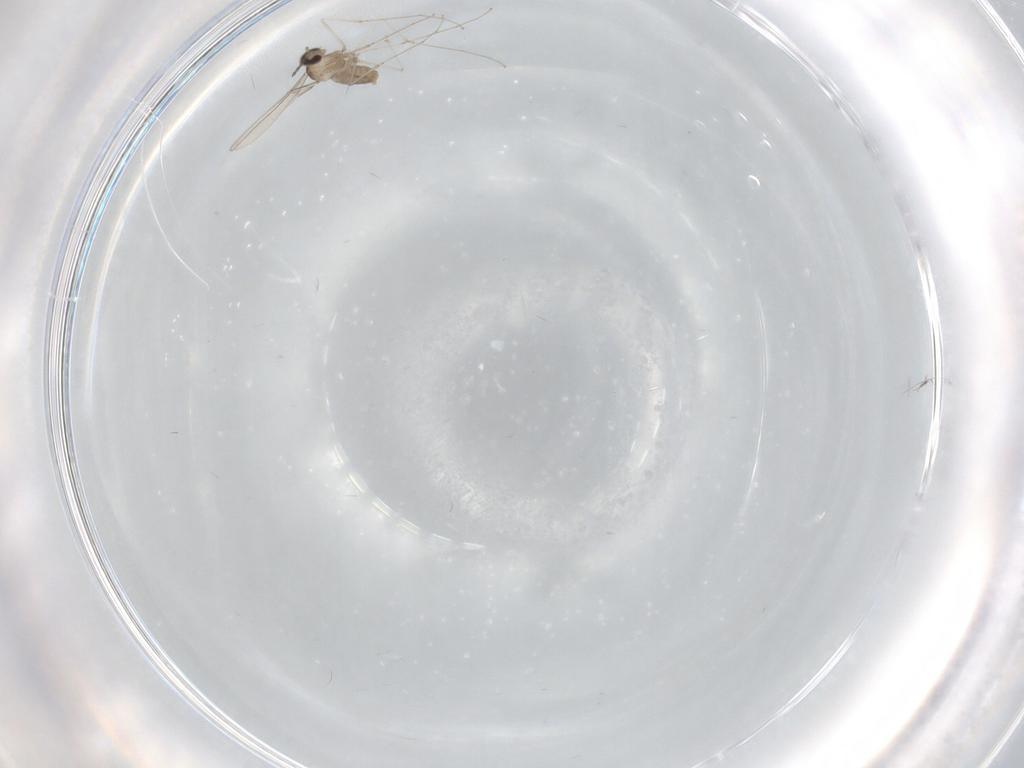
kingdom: Animalia
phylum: Arthropoda
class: Insecta
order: Diptera
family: Cecidomyiidae
